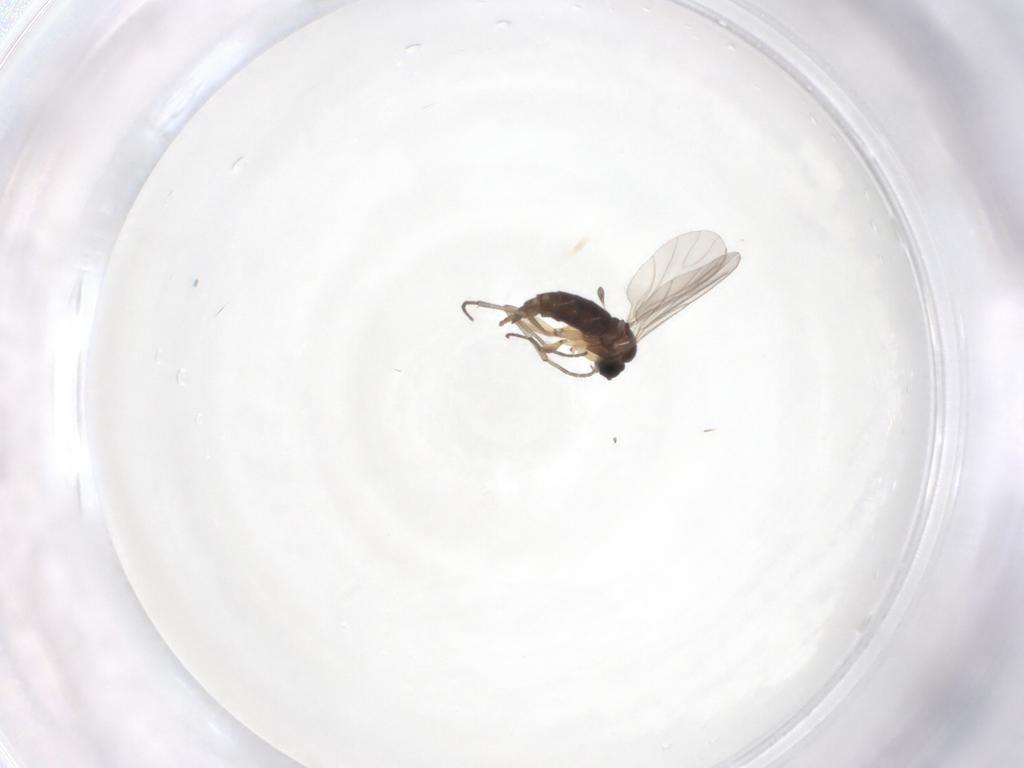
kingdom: Animalia
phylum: Arthropoda
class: Insecta
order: Diptera
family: Sciaridae
